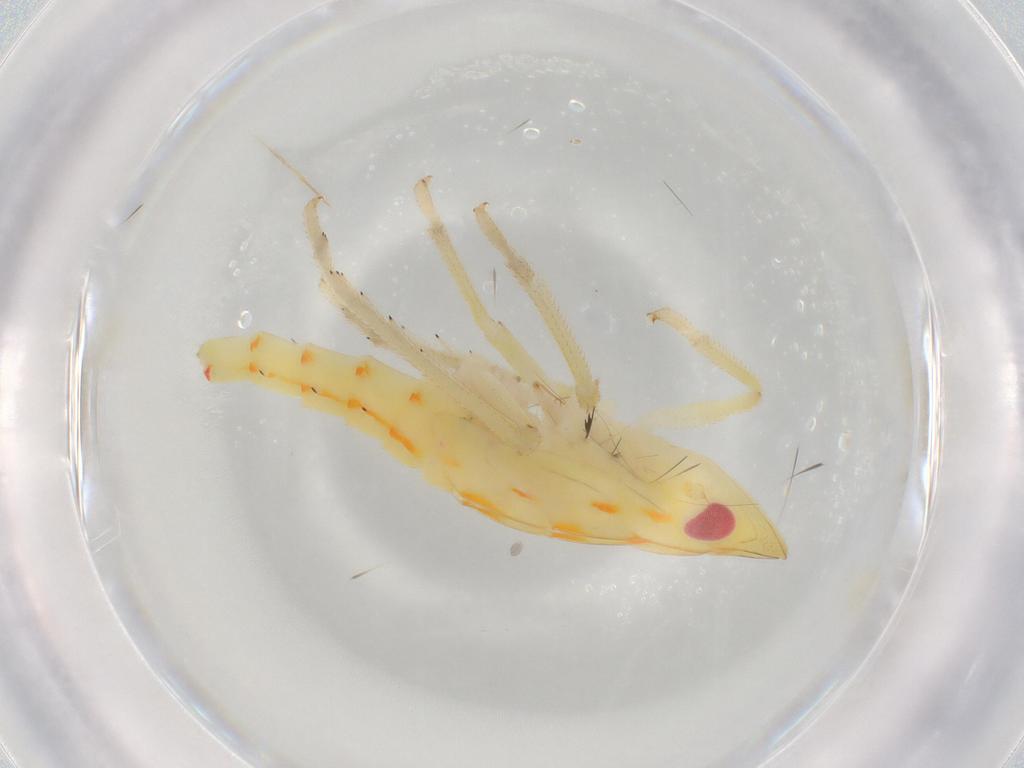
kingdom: Animalia
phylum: Arthropoda
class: Insecta
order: Hemiptera
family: Tropiduchidae
